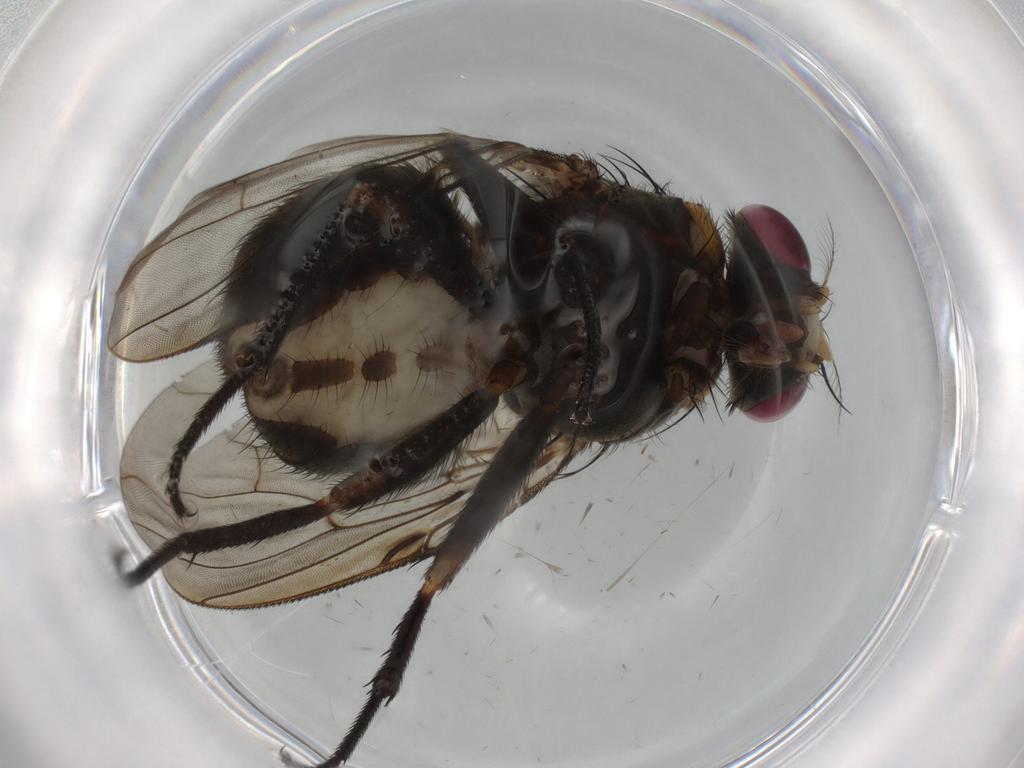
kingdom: Animalia
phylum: Arthropoda
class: Insecta
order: Diptera
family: Muscidae
